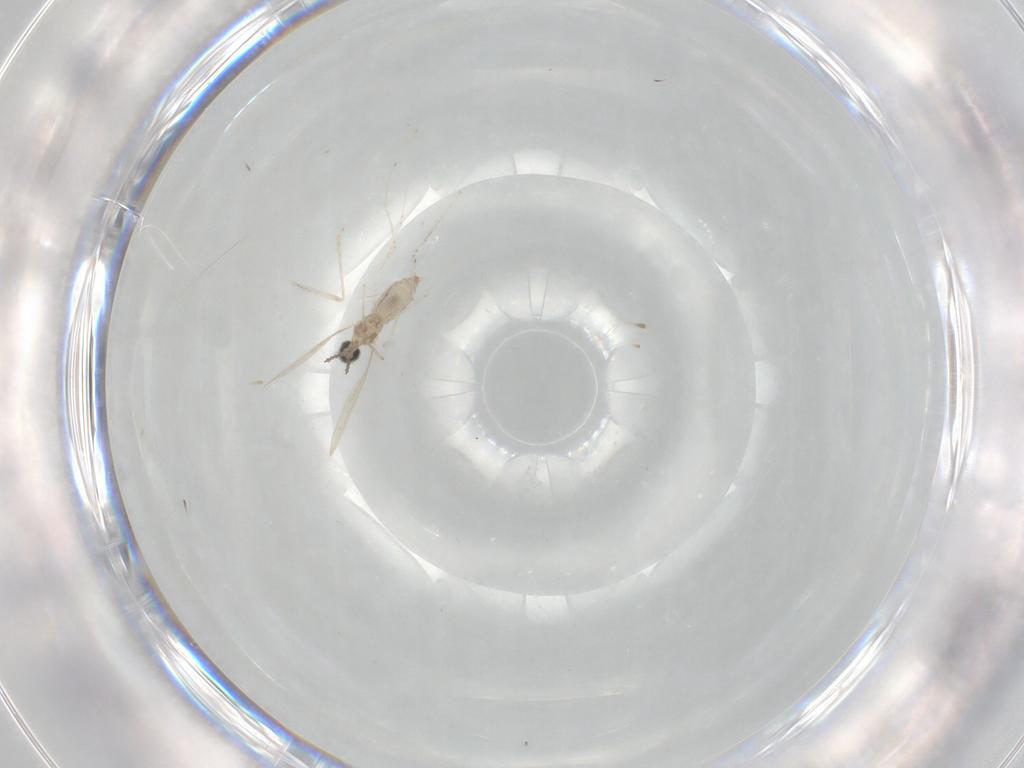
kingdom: Animalia
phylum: Arthropoda
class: Insecta
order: Diptera
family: Cecidomyiidae
